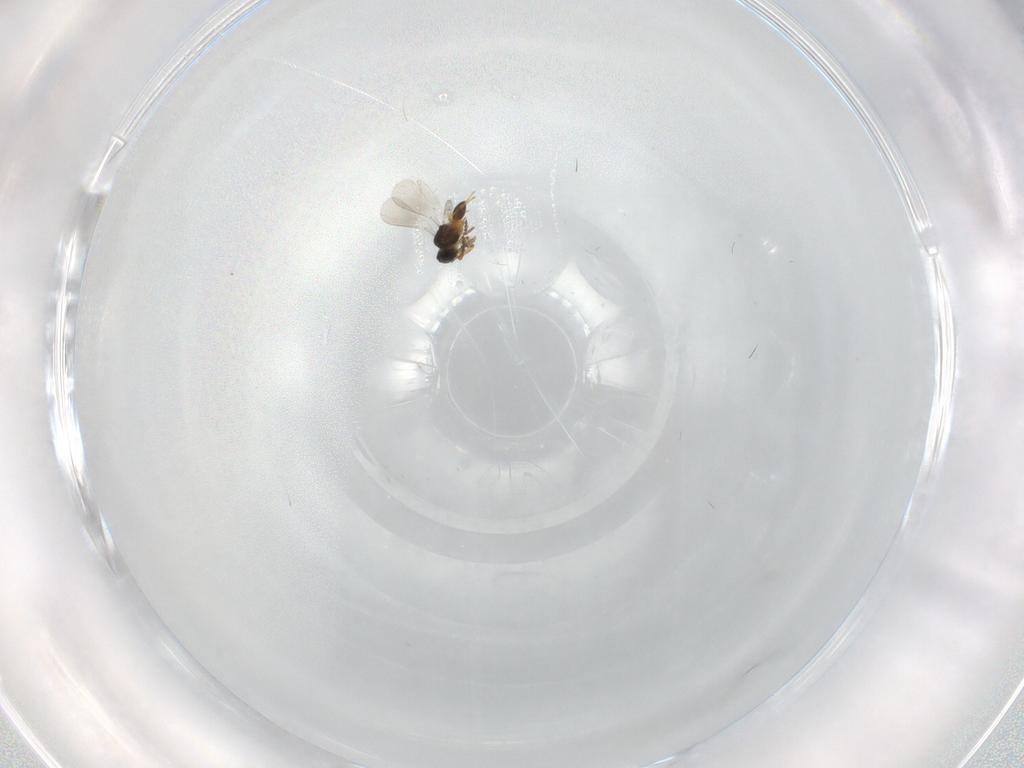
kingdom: Animalia
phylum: Arthropoda
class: Insecta
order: Hymenoptera
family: Platygastridae
